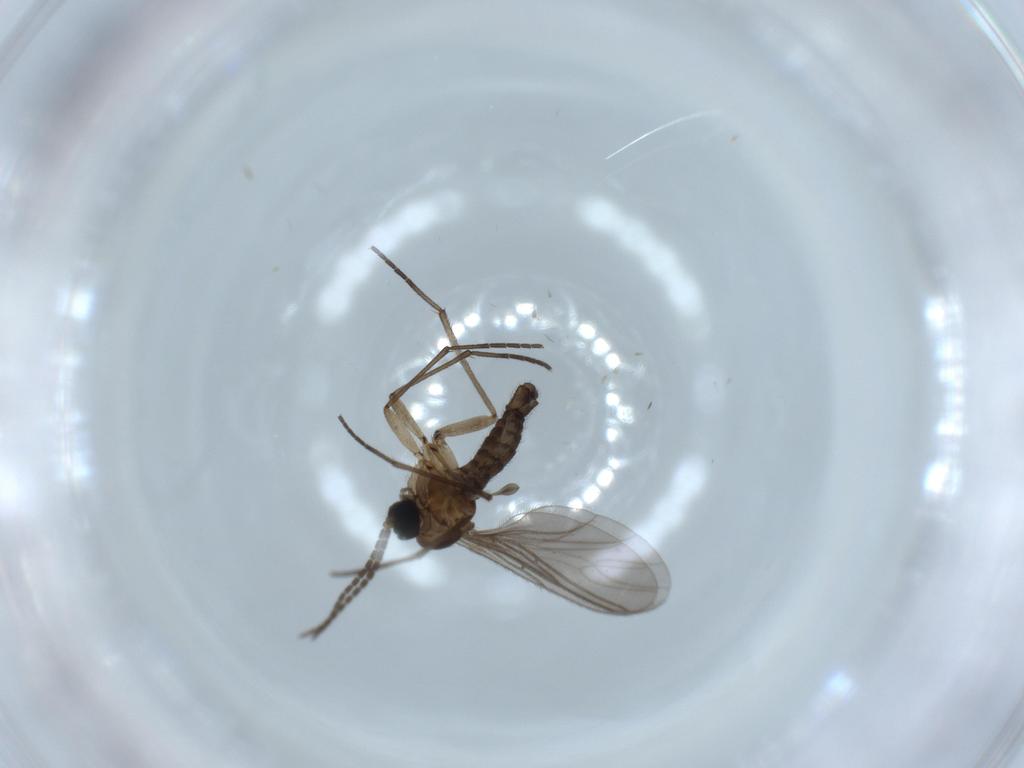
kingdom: Animalia
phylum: Arthropoda
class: Insecta
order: Diptera
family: Sciaridae
